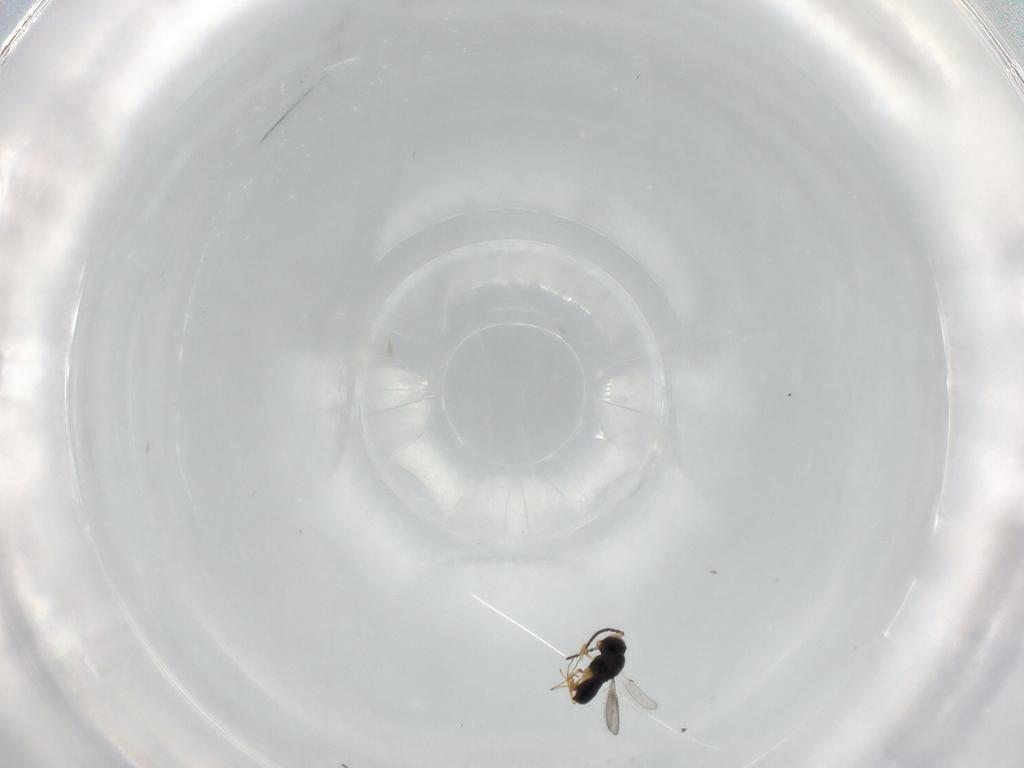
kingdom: Animalia
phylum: Arthropoda
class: Insecta
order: Hymenoptera
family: Scelionidae
